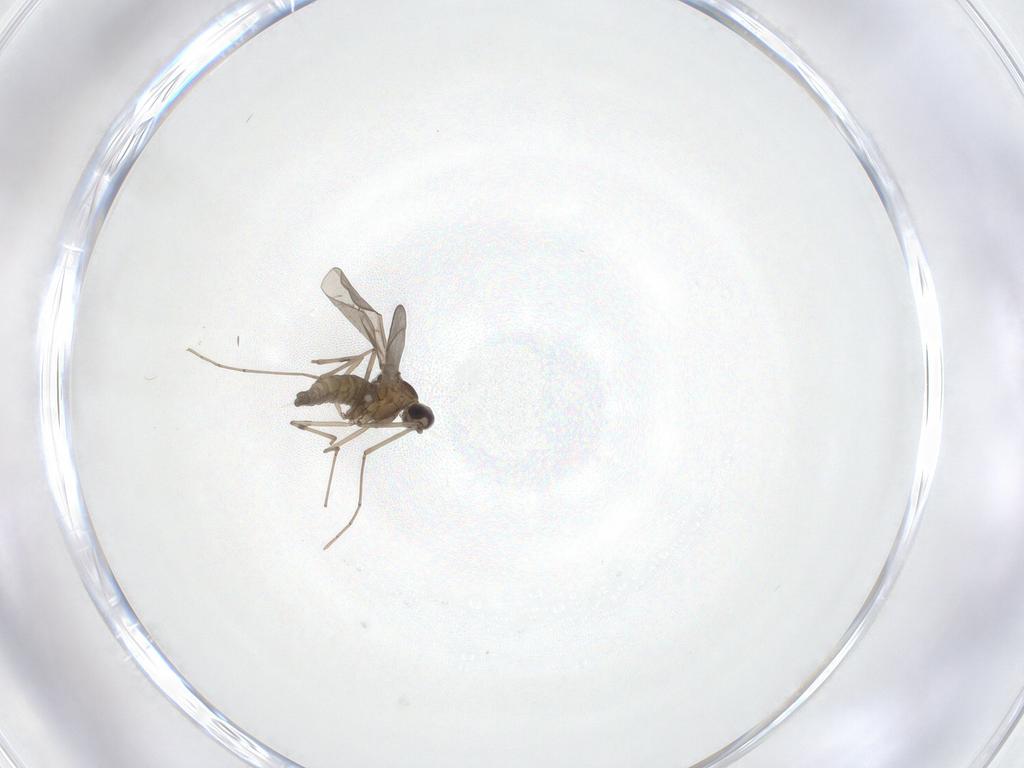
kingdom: Animalia
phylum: Arthropoda
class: Insecta
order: Diptera
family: Cecidomyiidae
